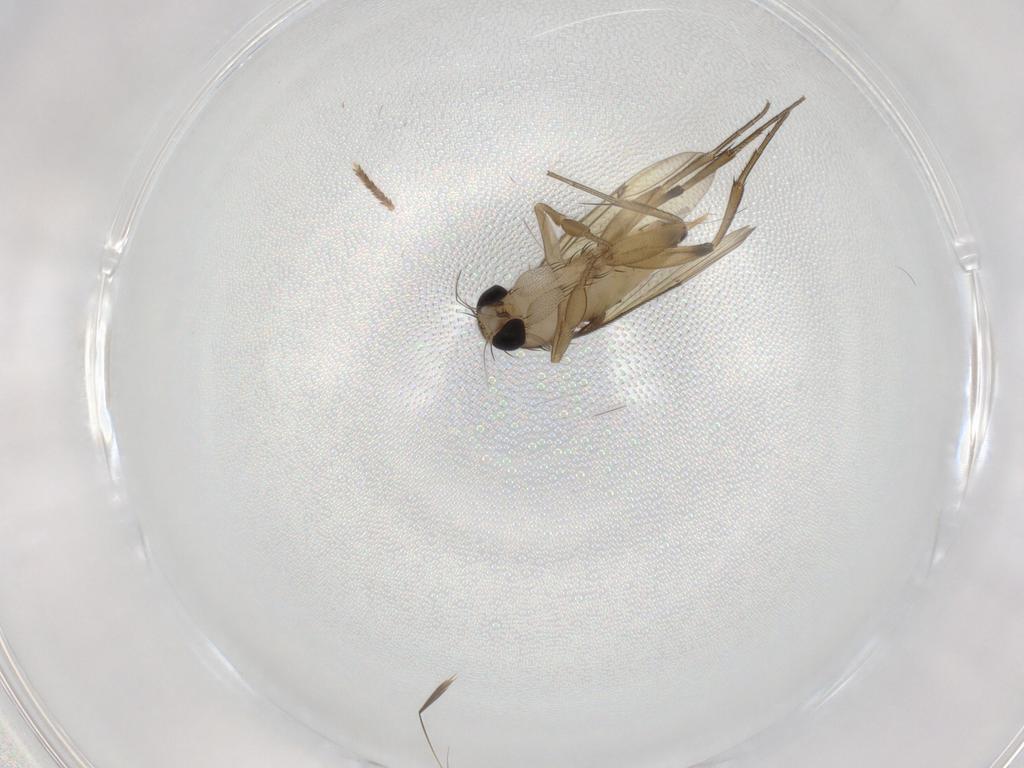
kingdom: Animalia
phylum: Arthropoda
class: Insecta
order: Diptera
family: Phoridae
